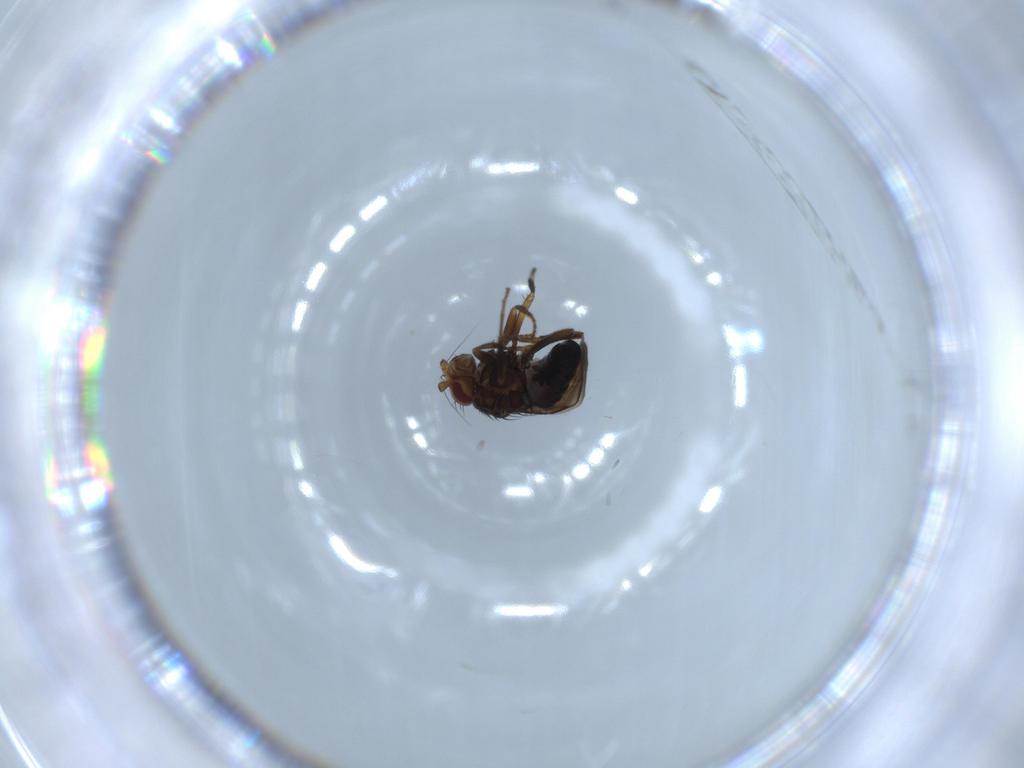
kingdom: Animalia
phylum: Arthropoda
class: Insecta
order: Diptera
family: Sphaeroceridae
